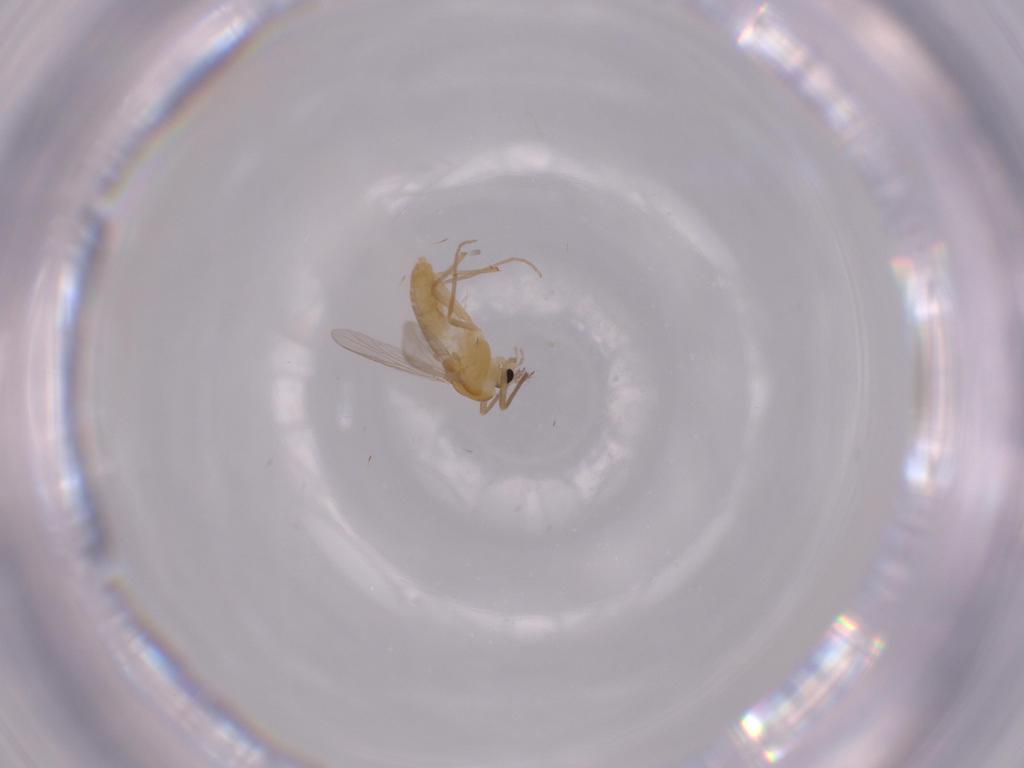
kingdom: Animalia
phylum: Arthropoda
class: Insecta
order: Diptera
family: Chironomidae
